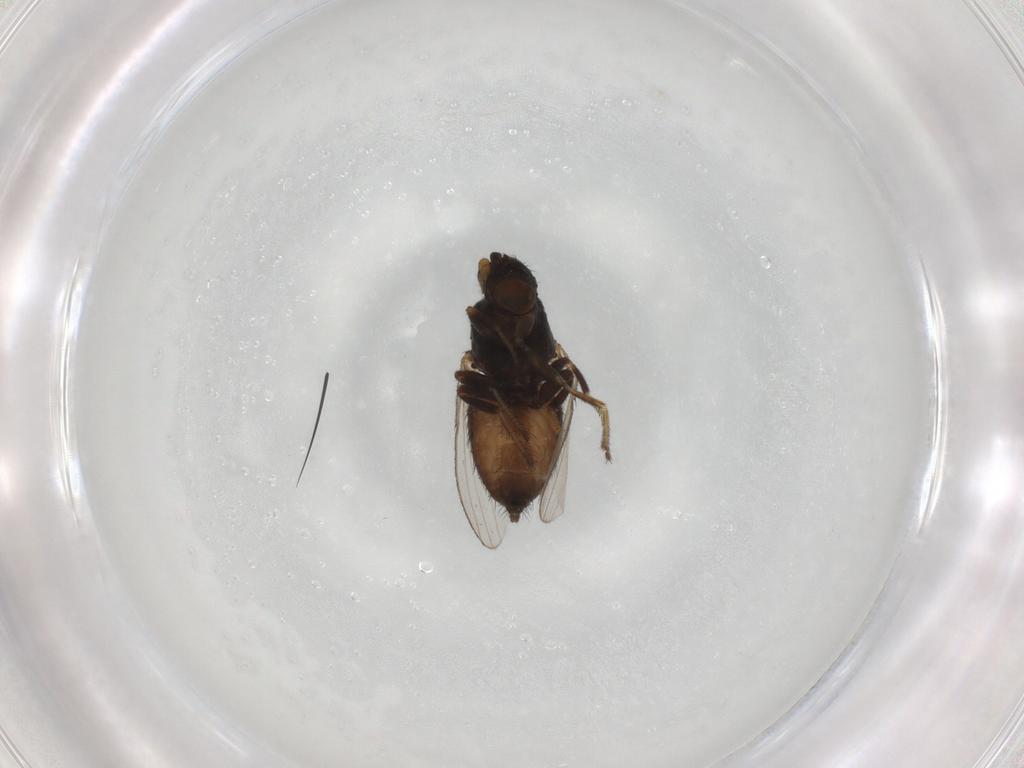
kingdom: Animalia
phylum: Arthropoda
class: Insecta
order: Diptera
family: Milichiidae
